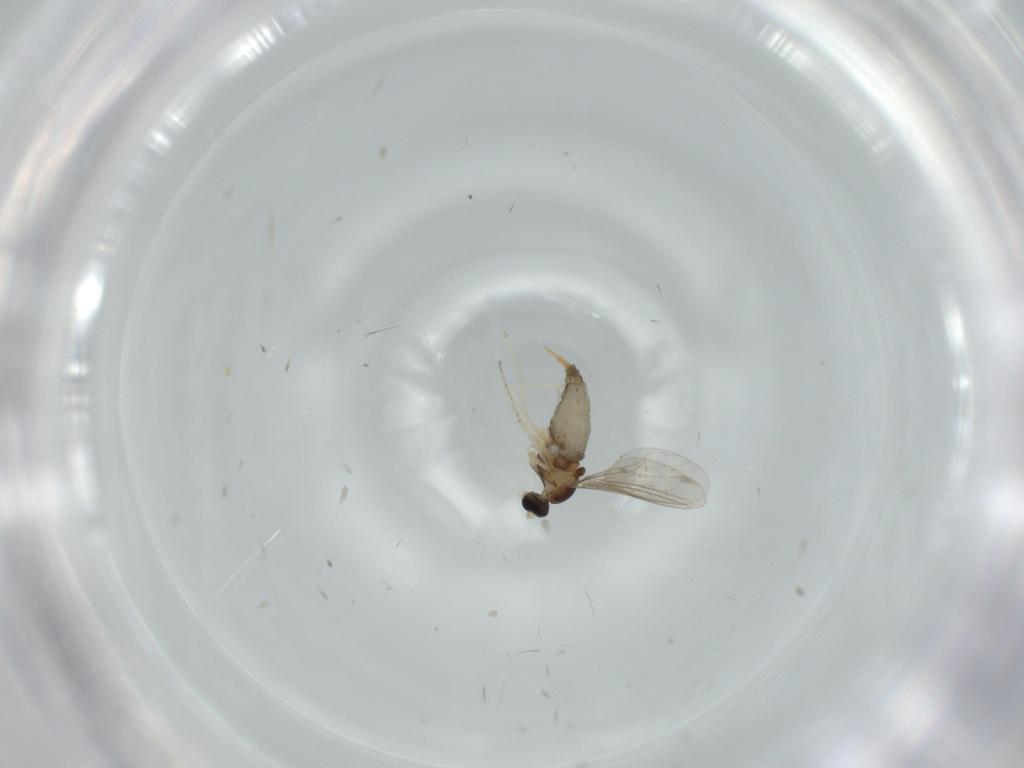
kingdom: Animalia
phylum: Arthropoda
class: Insecta
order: Diptera
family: Cecidomyiidae
